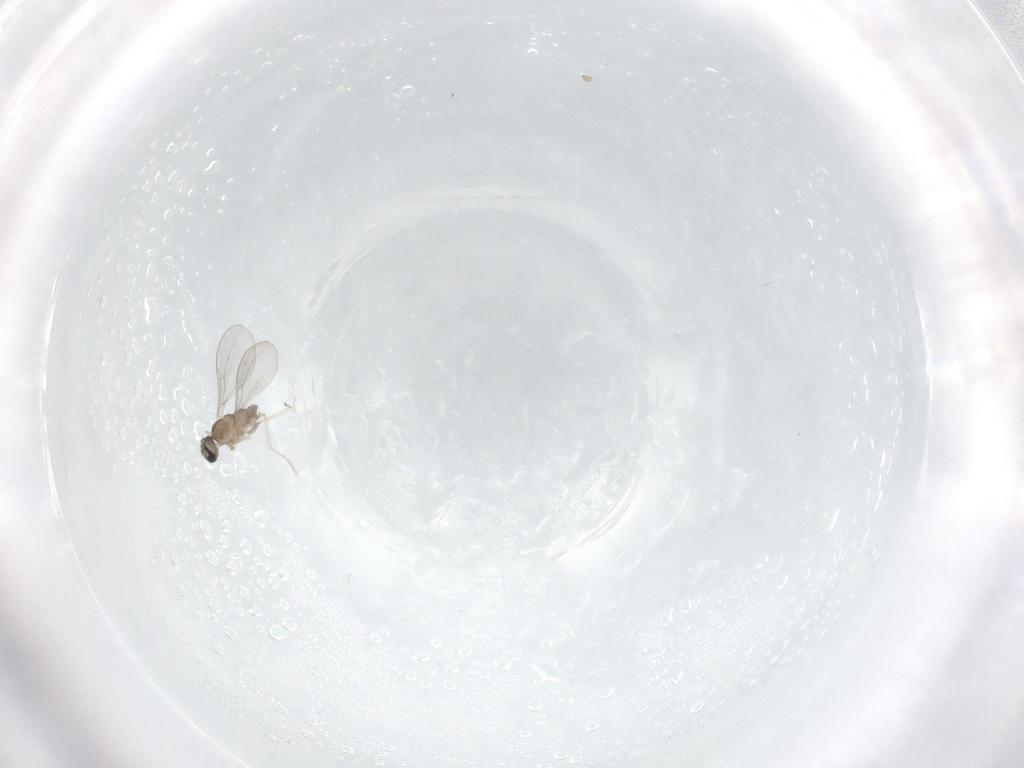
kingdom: Animalia
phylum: Arthropoda
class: Insecta
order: Diptera
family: Cecidomyiidae
